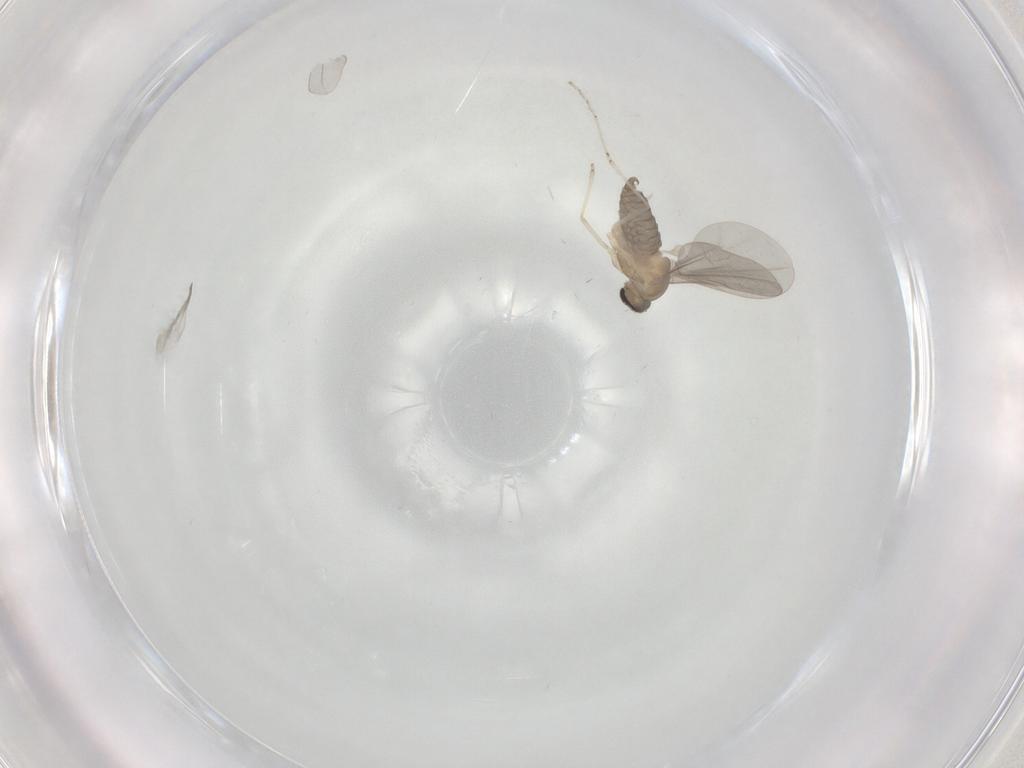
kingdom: Animalia
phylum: Arthropoda
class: Insecta
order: Diptera
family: Cecidomyiidae
